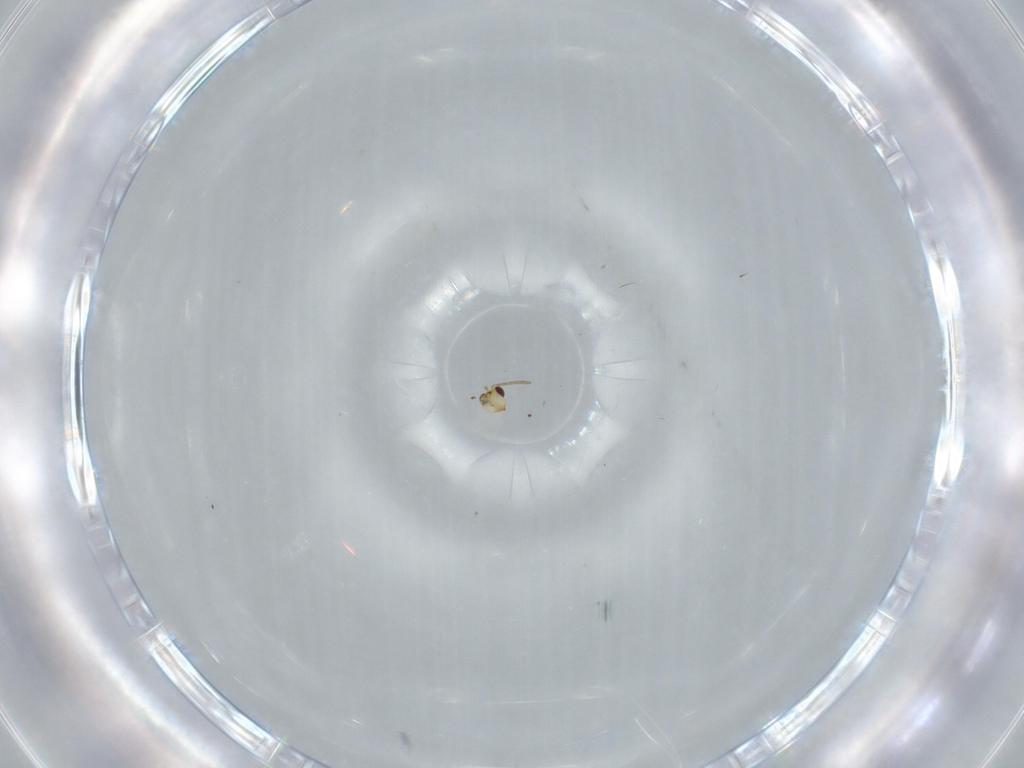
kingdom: Animalia
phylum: Arthropoda
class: Insecta
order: Hymenoptera
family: Aphelinidae
